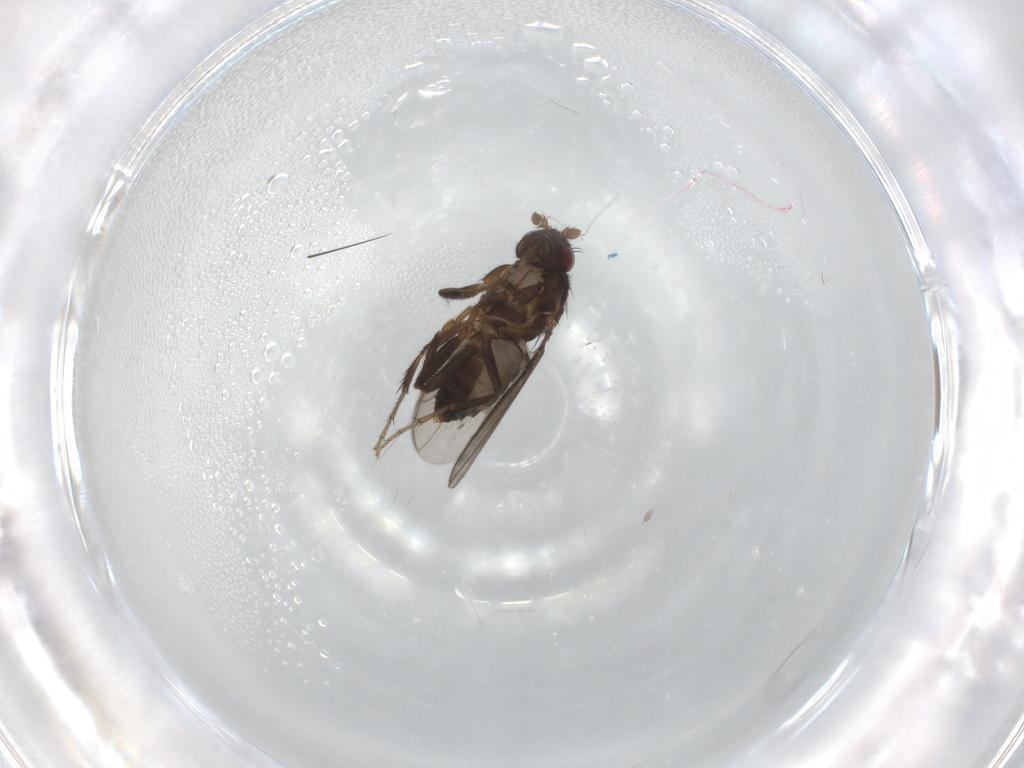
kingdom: Animalia
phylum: Arthropoda
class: Insecta
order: Diptera
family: Sphaeroceridae
